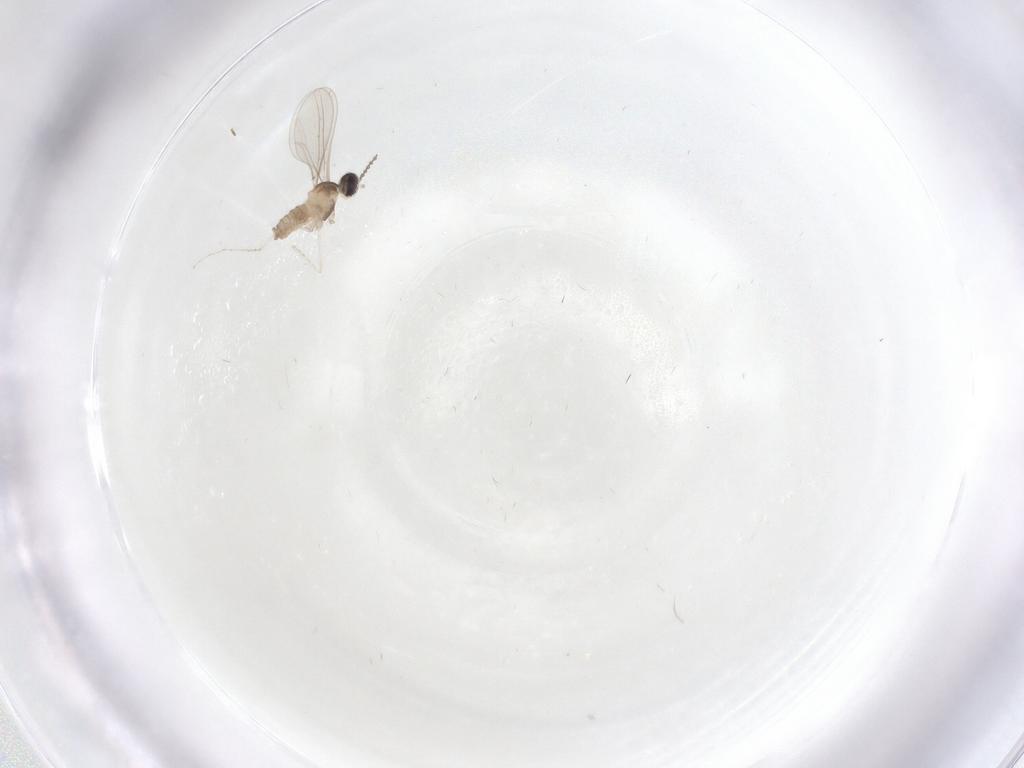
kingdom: Animalia
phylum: Arthropoda
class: Insecta
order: Diptera
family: Cecidomyiidae
